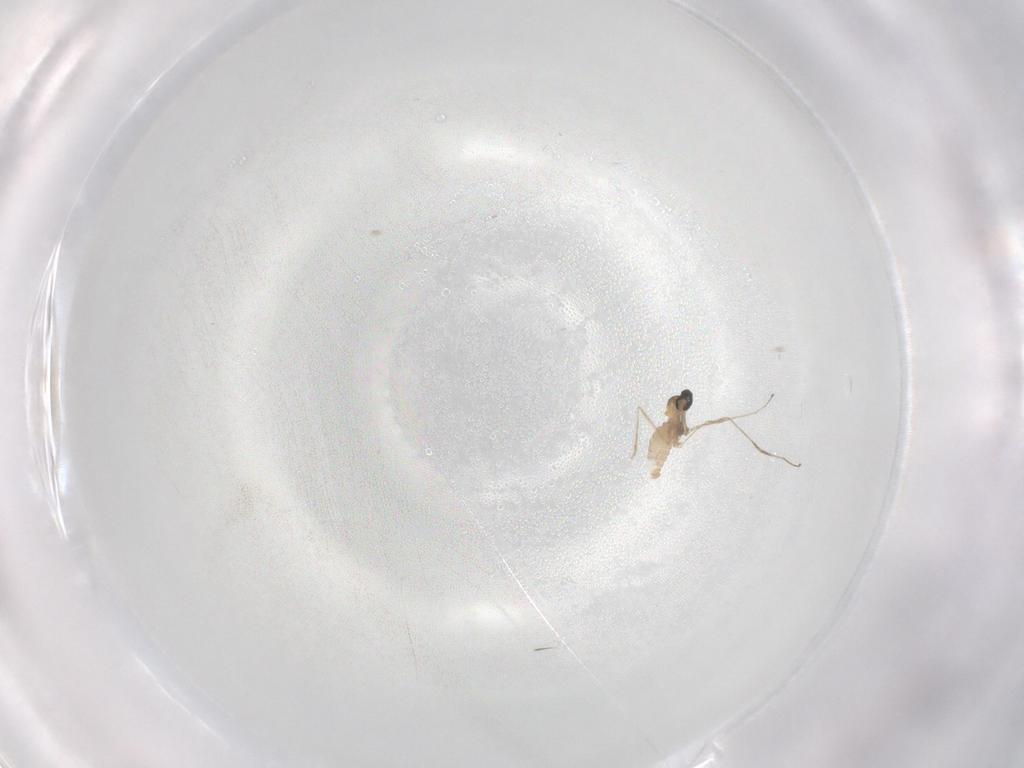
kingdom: Animalia
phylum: Arthropoda
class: Insecta
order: Diptera
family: Cecidomyiidae
